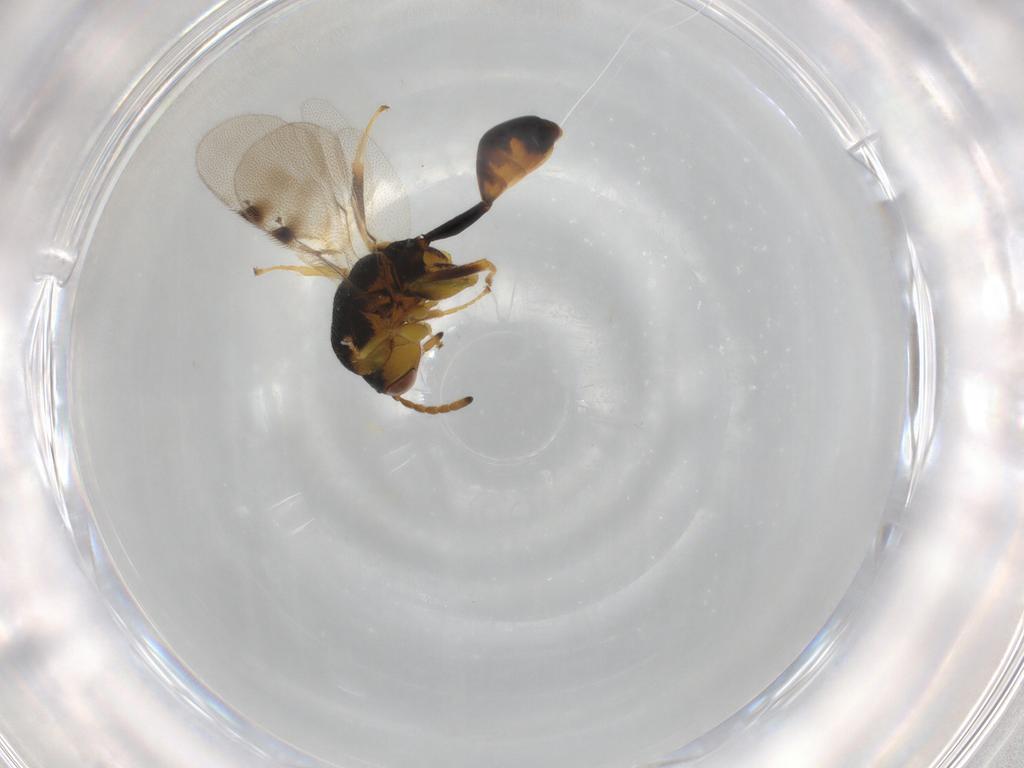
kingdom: Animalia
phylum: Arthropoda
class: Insecta
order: Hymenoptera
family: Eurytomidae
